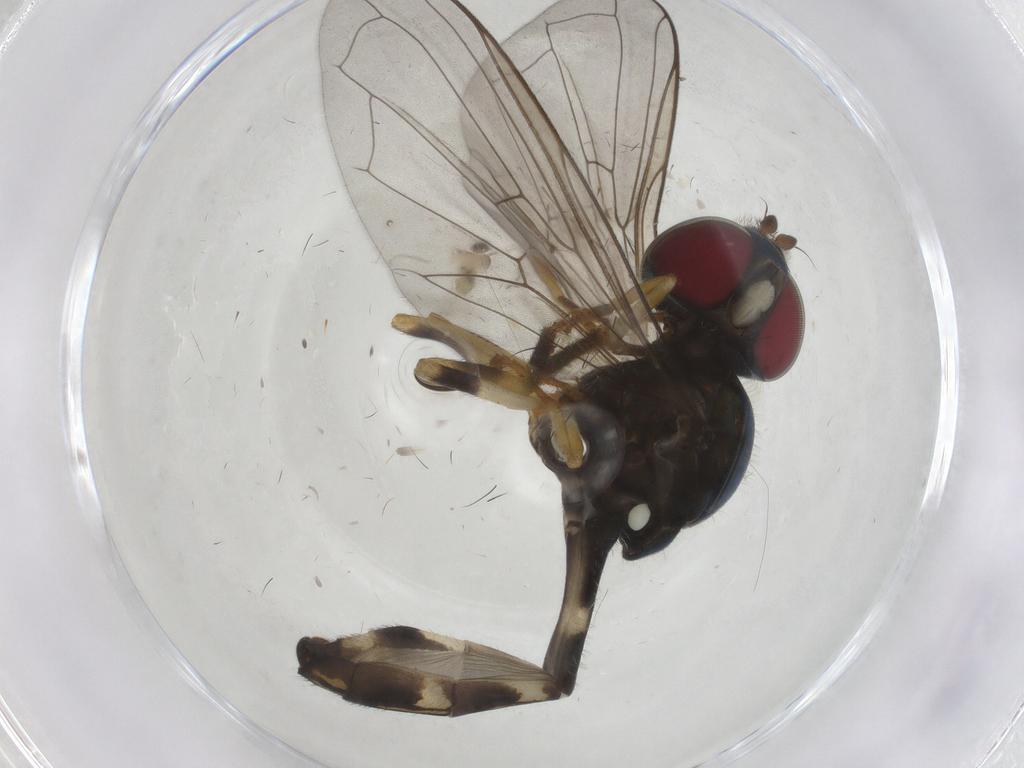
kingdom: Animalia
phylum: Arthropoda
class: Insecta
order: Diptera
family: Syrphidae
